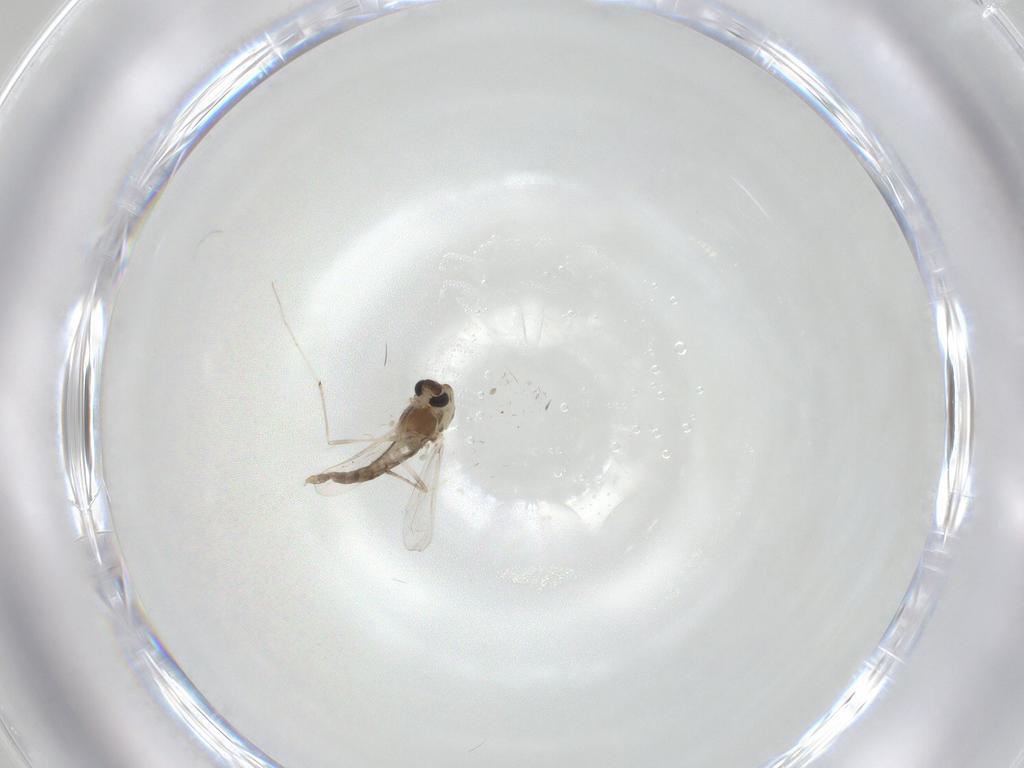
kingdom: Animalia
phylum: Arthropoda
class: Insecta
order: Diptera
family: Chironomidae
